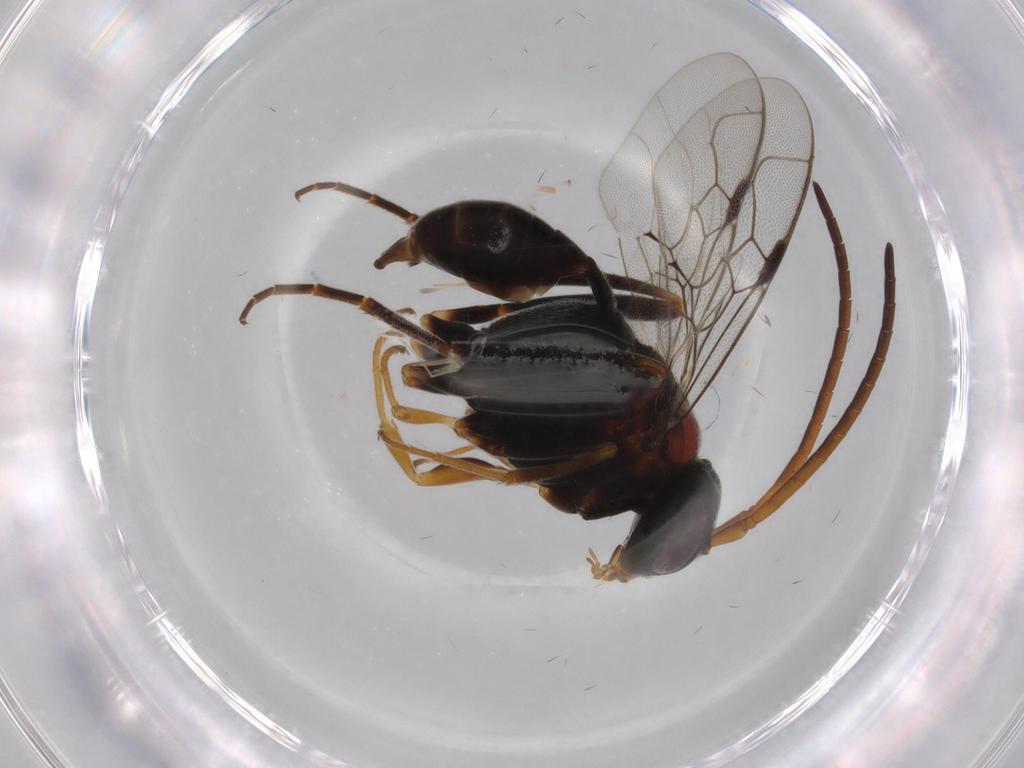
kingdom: Animalia
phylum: Arthropoda
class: Insecta
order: Hymenoptera
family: Evaniidae
